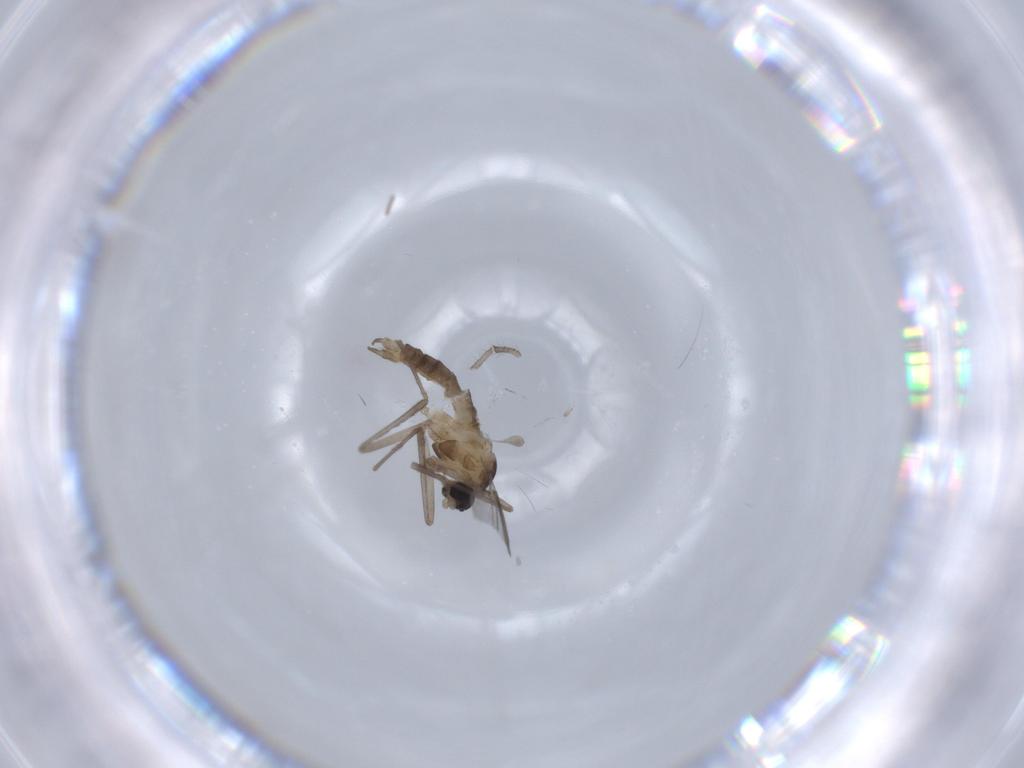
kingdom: Animalia
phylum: Arthropoda
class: Insecta
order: Diptera
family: Chironomidae
